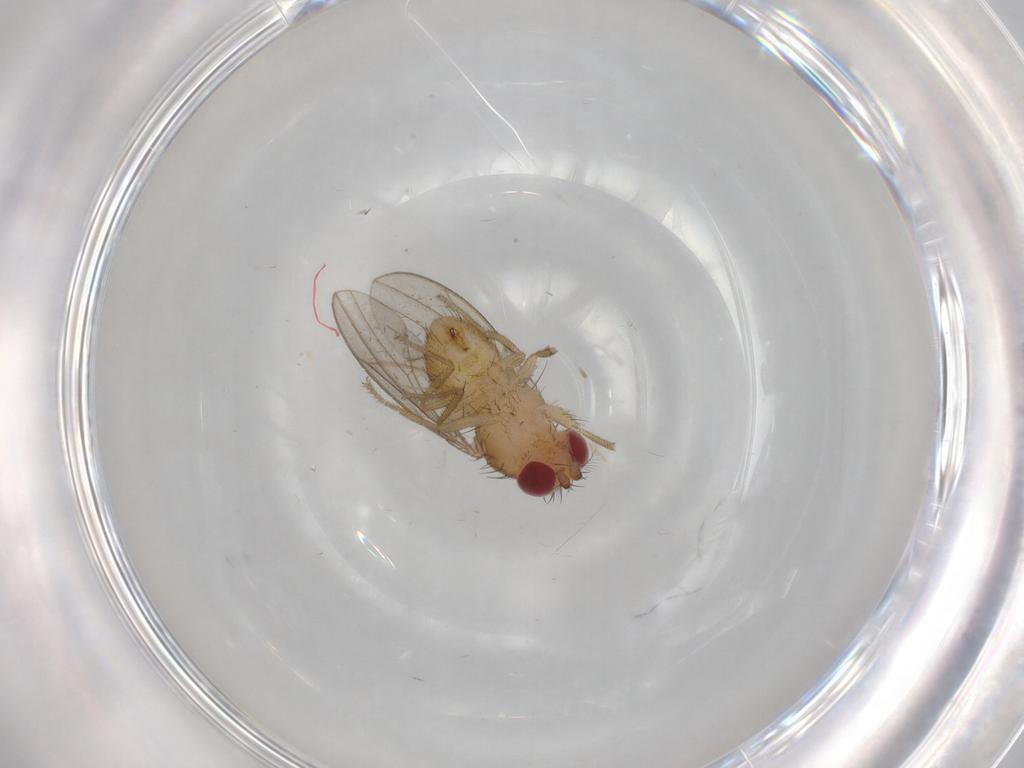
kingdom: Animalia
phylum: Arthropoda
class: Insecta
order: Diptera
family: Drosophilidae
